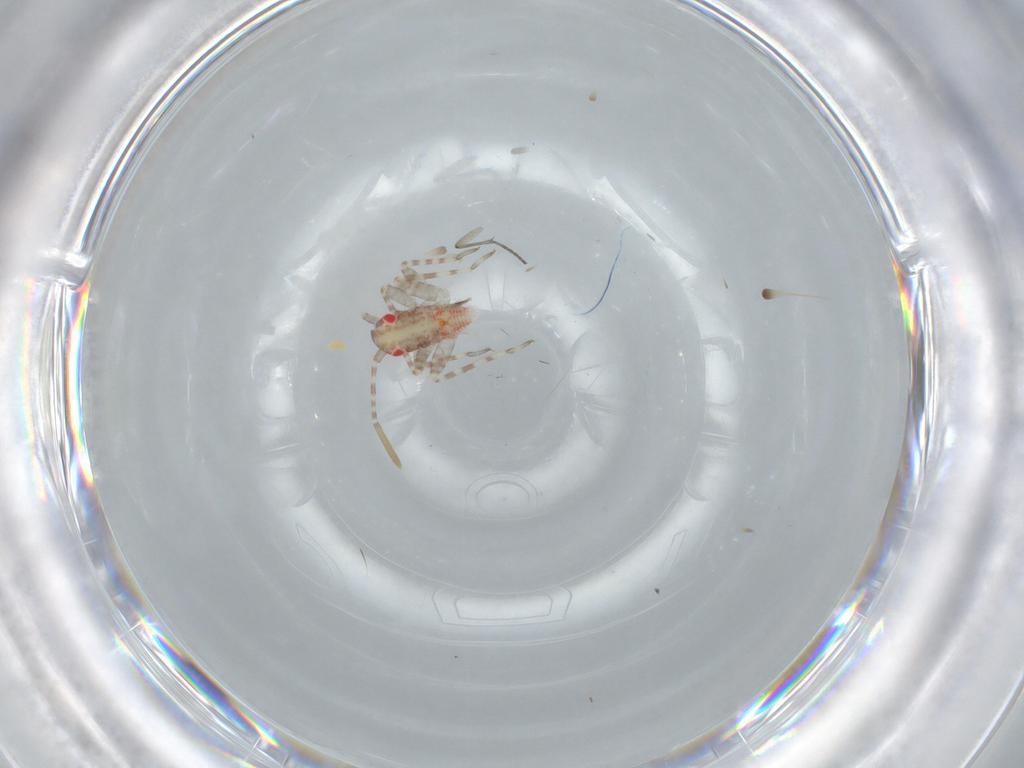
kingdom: Animalia
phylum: Arthropoda
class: Insecta
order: Hemiptera
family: Miridae
